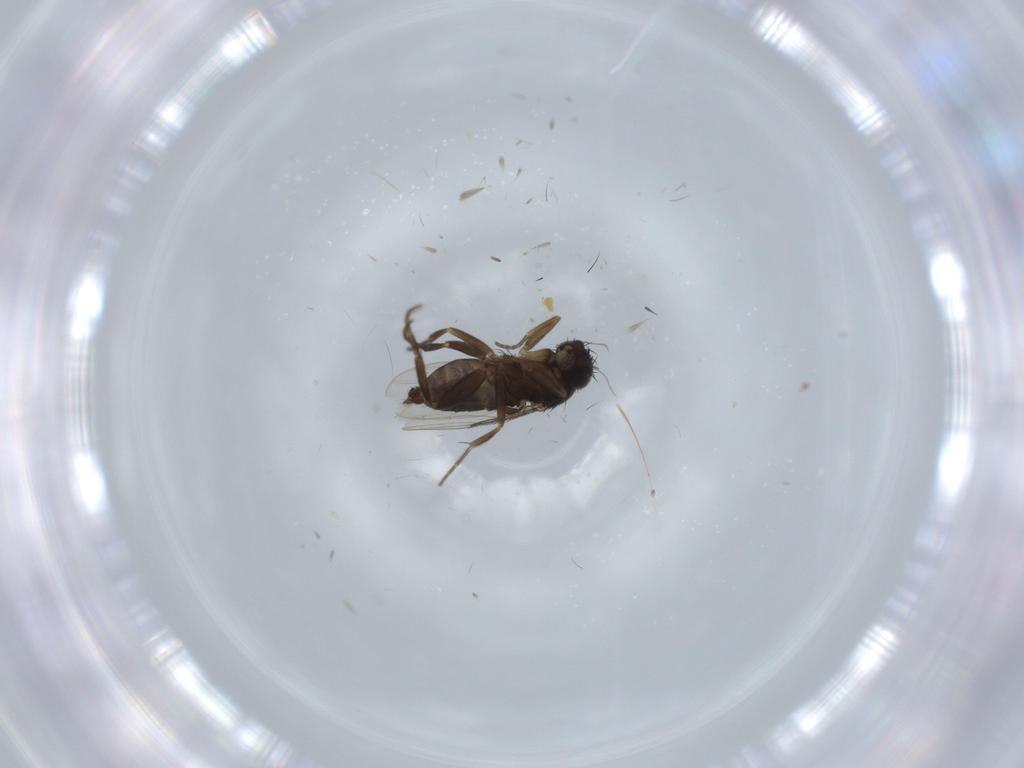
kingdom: Animalia
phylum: Arthropoda
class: Insecta
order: Diptera
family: Phoridae
